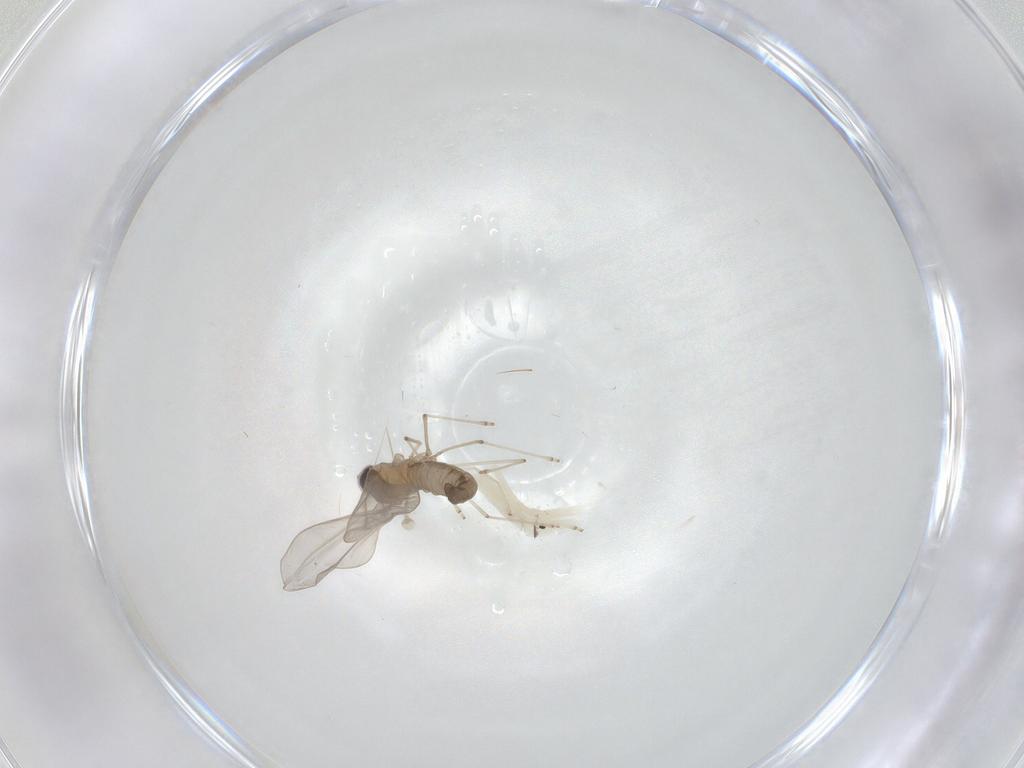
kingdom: Animalia
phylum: Arthropoda
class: Insecta
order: Diptera
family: Cecidomyiidae
